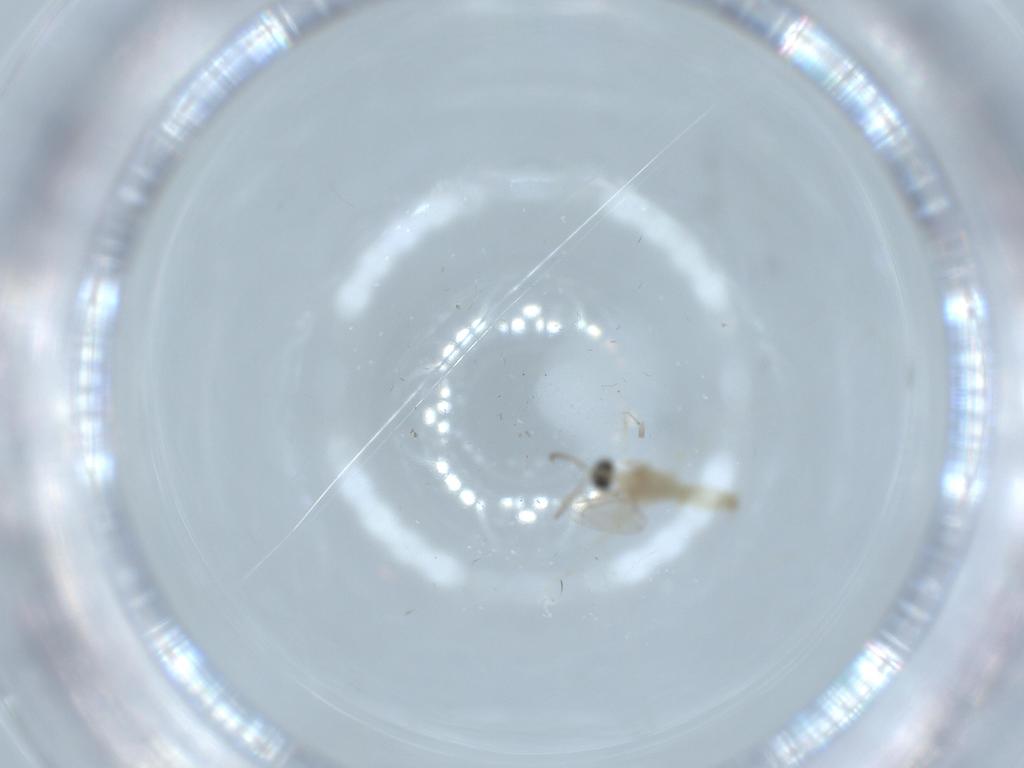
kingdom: Animalia
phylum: Arthropoda
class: Insecta
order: Diptera
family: Cecidomyiidae
